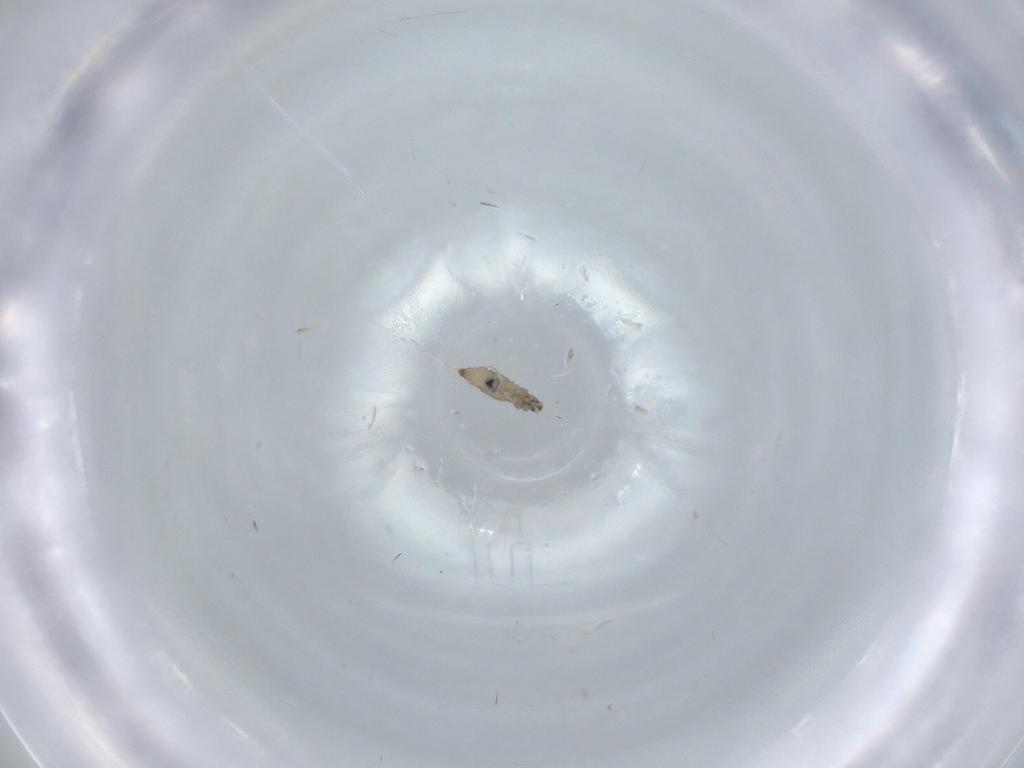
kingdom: Animalia
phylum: Arthropoda
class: Insecta
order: Diptera
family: Cecidomyiidae
